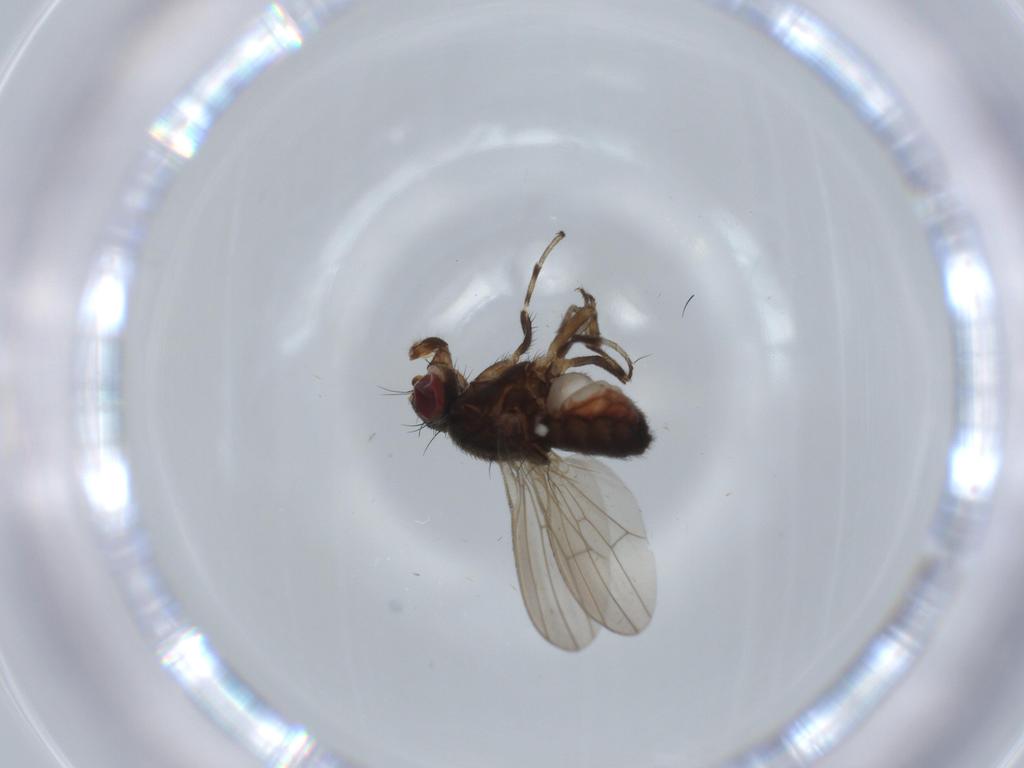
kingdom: Animalia
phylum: Arthropoda
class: Insecta
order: Diptera
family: Heleomyzidae
